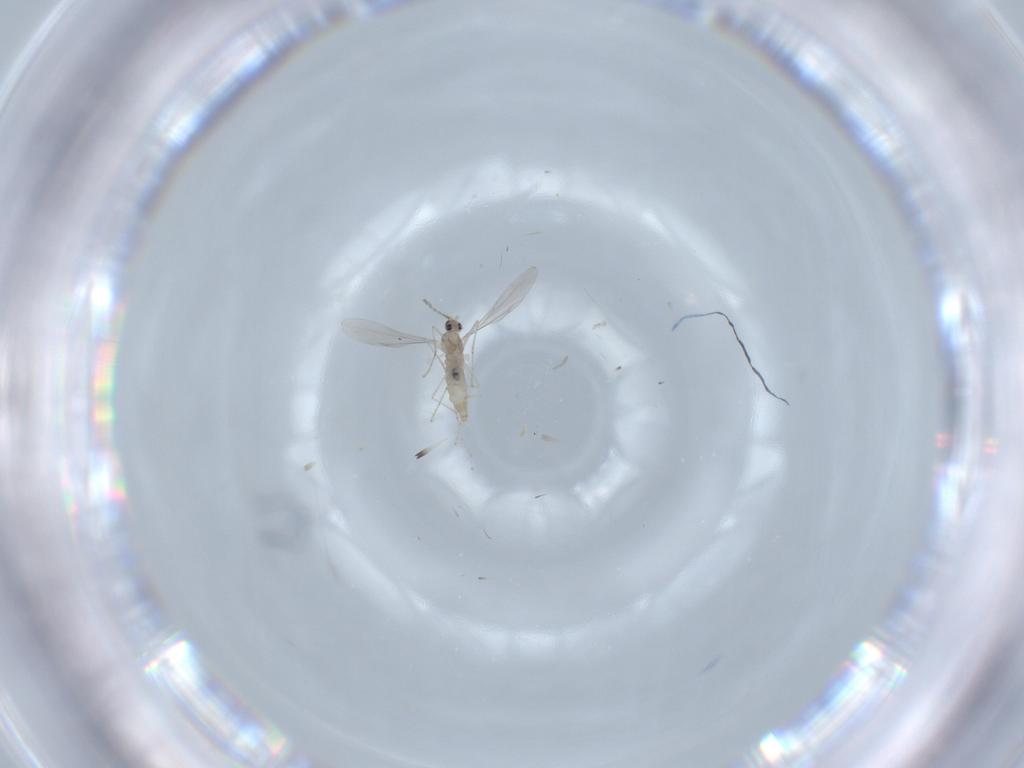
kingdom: Animalia
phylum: Arthropoda
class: Insecta
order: Diptera
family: Cecidomyiidae
